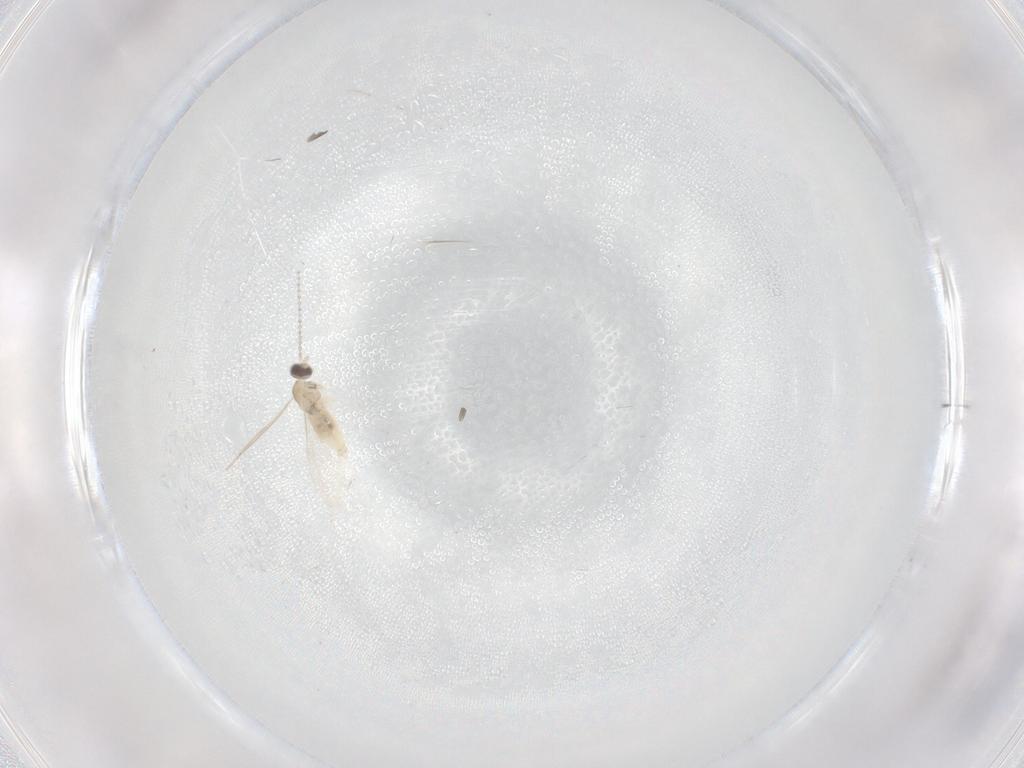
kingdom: Animalia
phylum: Arthropoda
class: Insecta
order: Diptera
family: Cecidomyiidae
